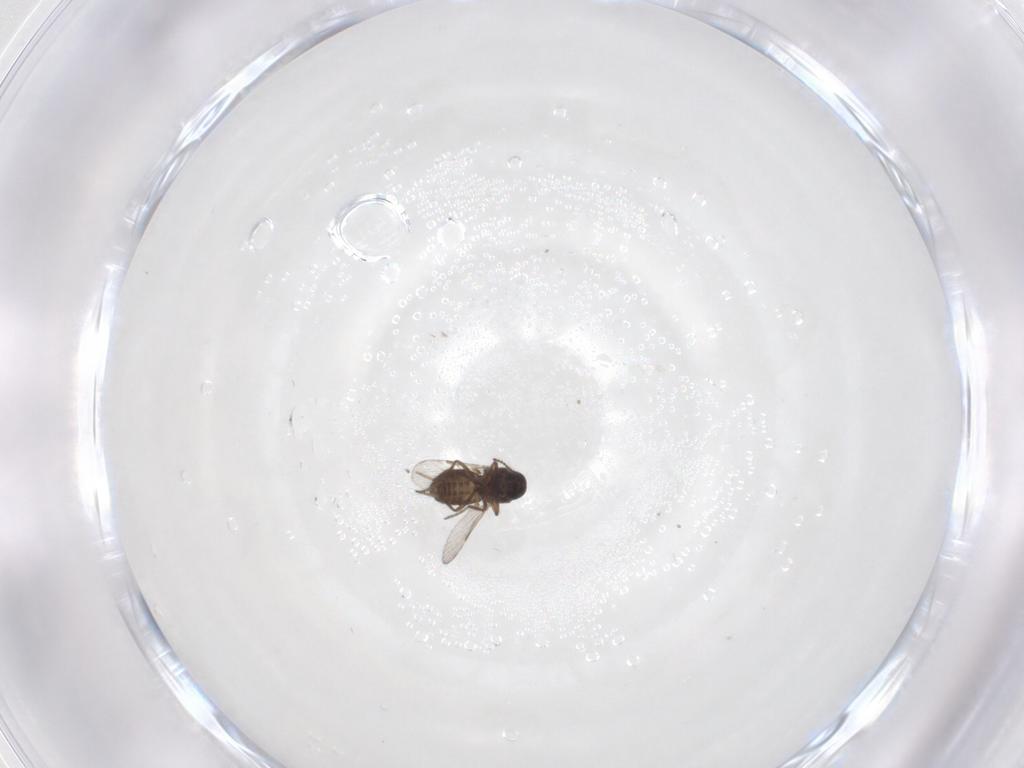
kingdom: Animalia
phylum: Arthropoda
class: Insecta
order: Diptera
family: Ceratopogonidae
